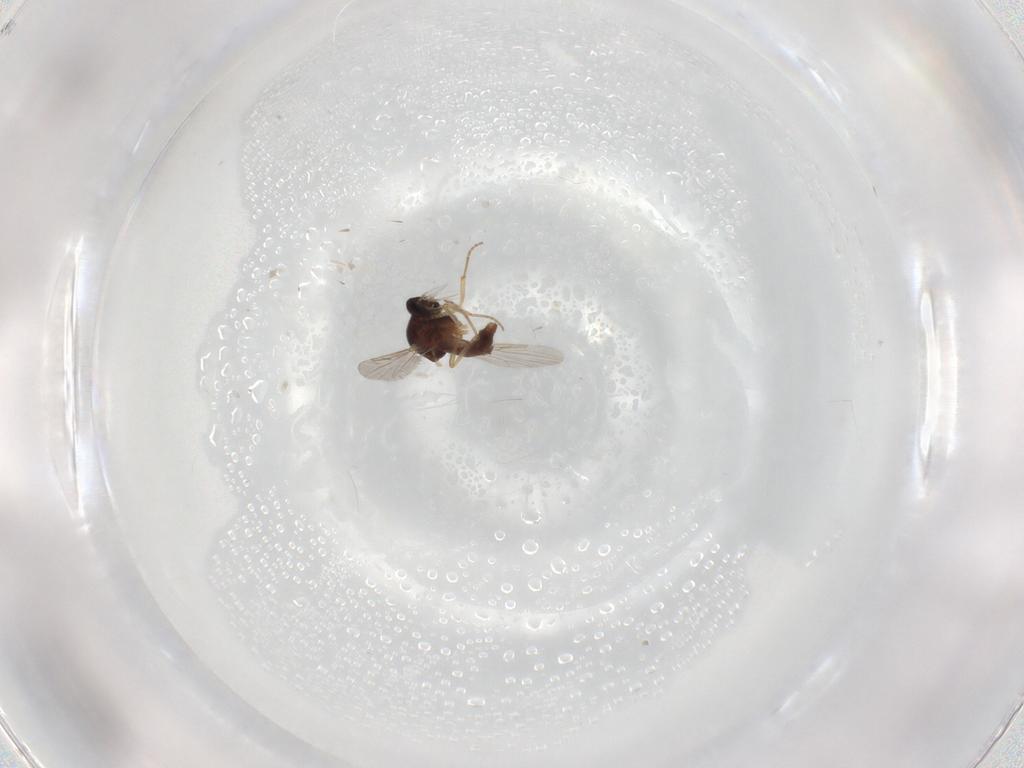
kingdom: Animalia
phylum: Arthropoda
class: Insecta
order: Diptera
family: Ceratopogonidae
